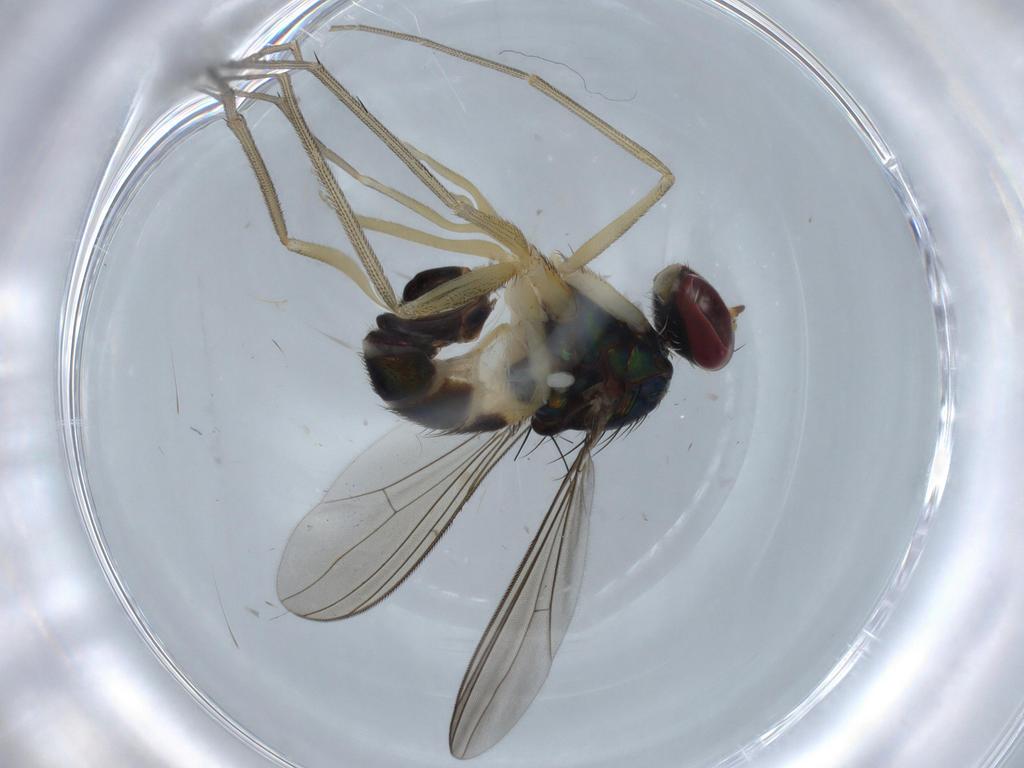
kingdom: Animalia
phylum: Arthropoda
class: Insecta
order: Diptera
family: Dolichopodidae
